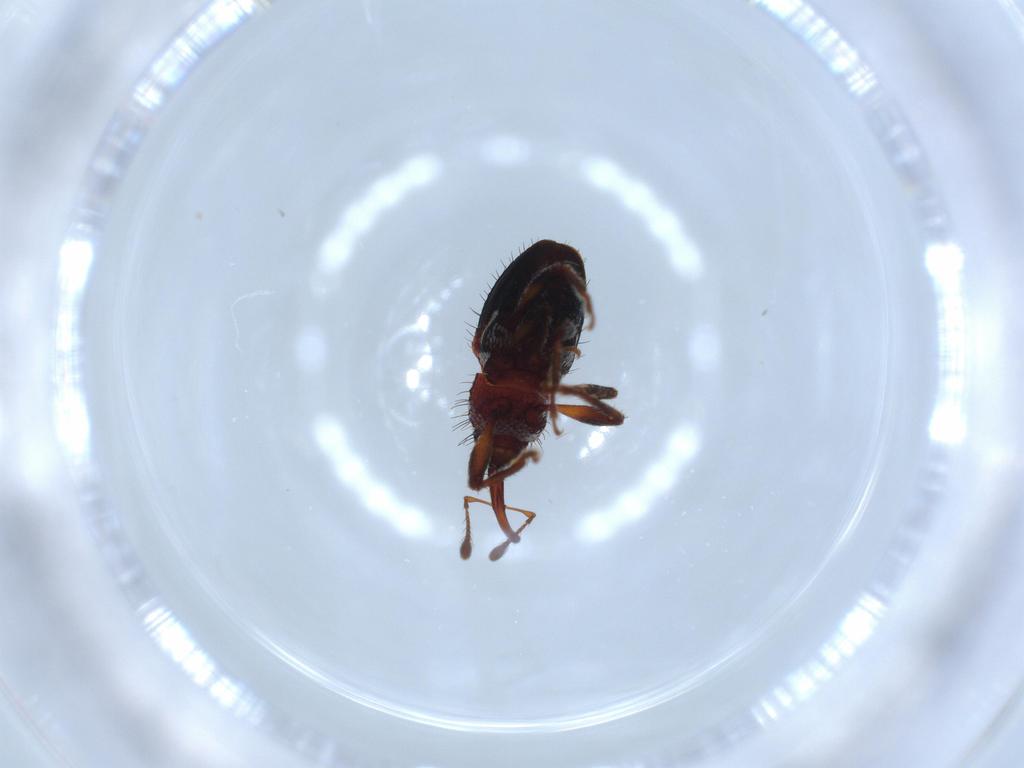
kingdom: Animalia
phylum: Arthropoda
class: Insecta
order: Coleoptera
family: Curculionidae
